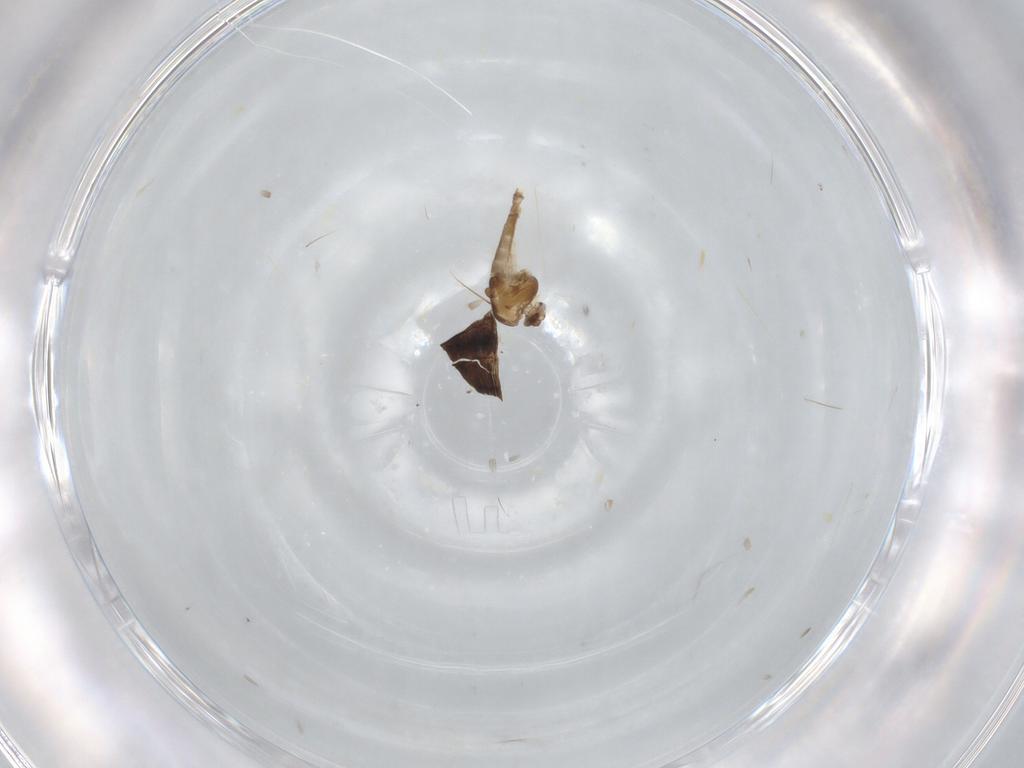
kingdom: Animalia
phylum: Arthropoda
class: Insecta
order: Diptera
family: Chironomidae
